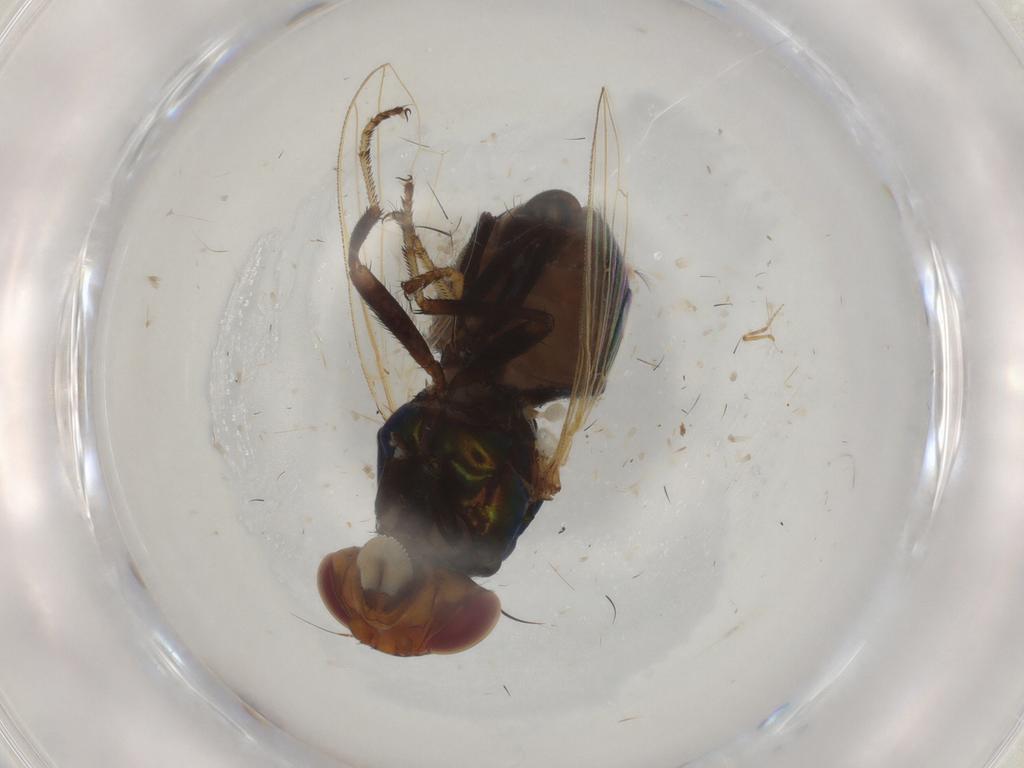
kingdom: Animalia
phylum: Arthropoda
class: Insecta
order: Diptera
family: Ulidiidae
